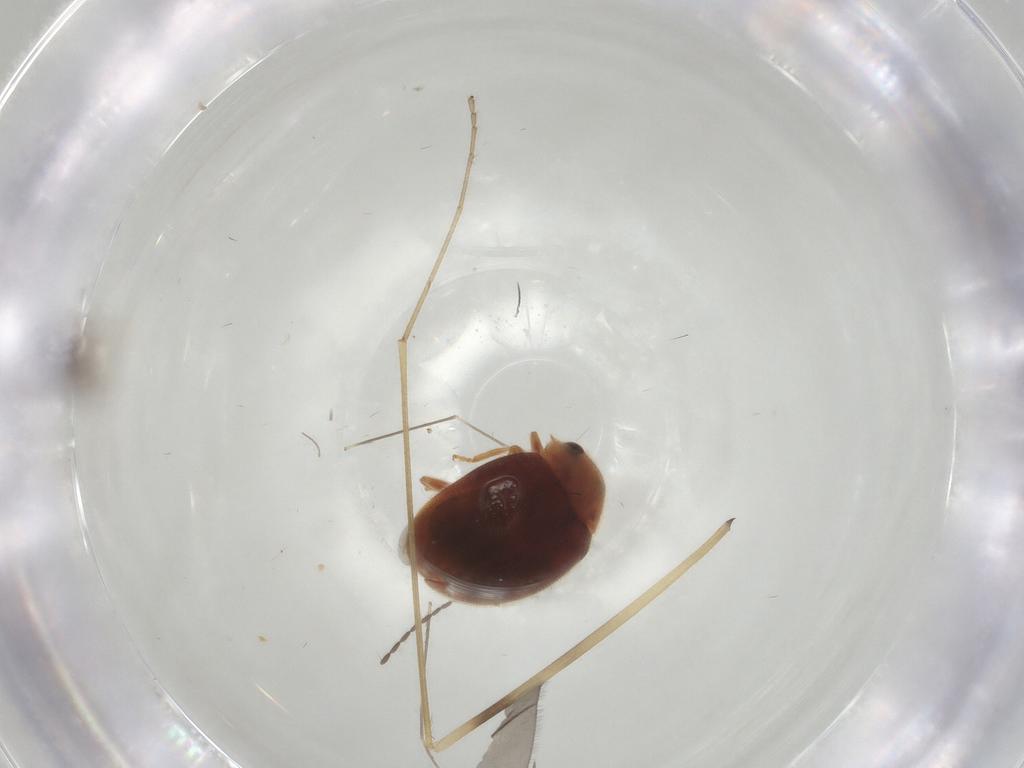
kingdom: Animalia
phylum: Arthropoda
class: Insecta
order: Coleoptera
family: Coccinellidae
